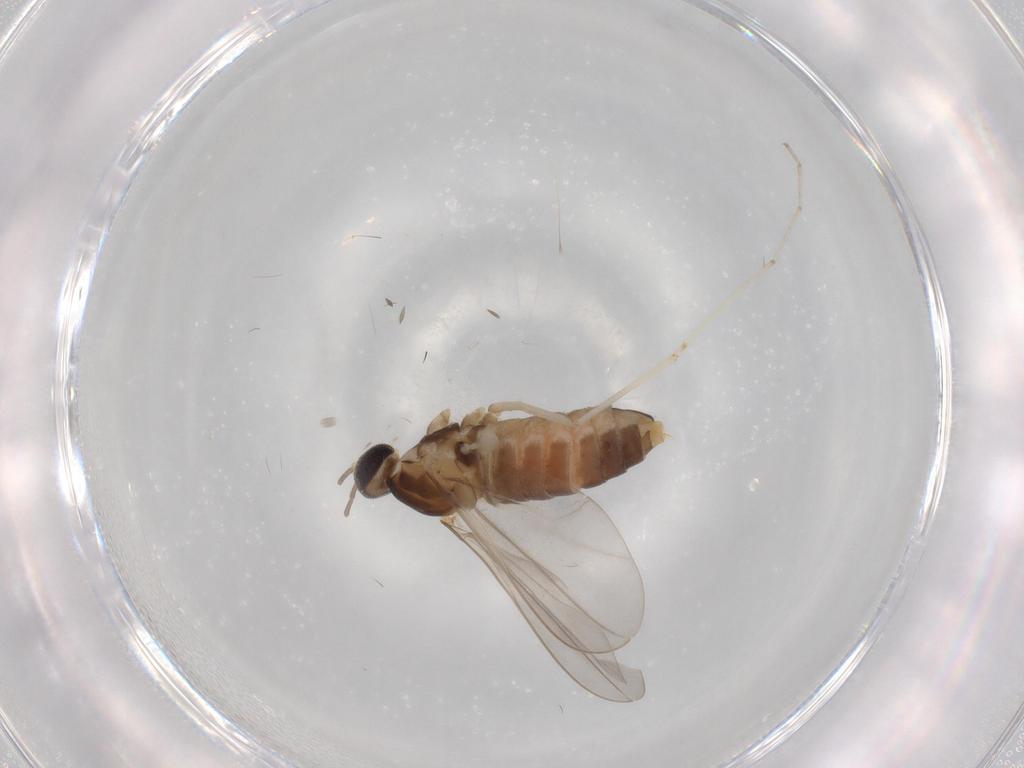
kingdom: Animalia
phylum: Arthropoda
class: Insecta
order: Diptera
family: Cecidomyiidae
